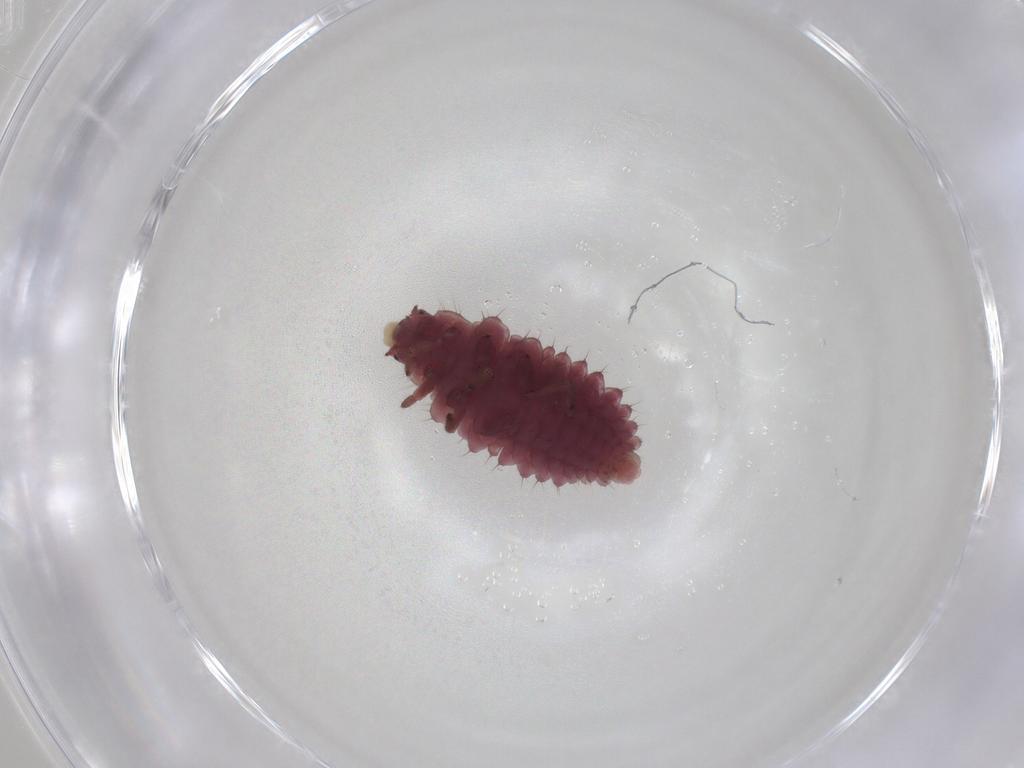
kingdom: Animalia
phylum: Arthropoda
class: Insecta
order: Coleoptera
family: Coccinellidae
